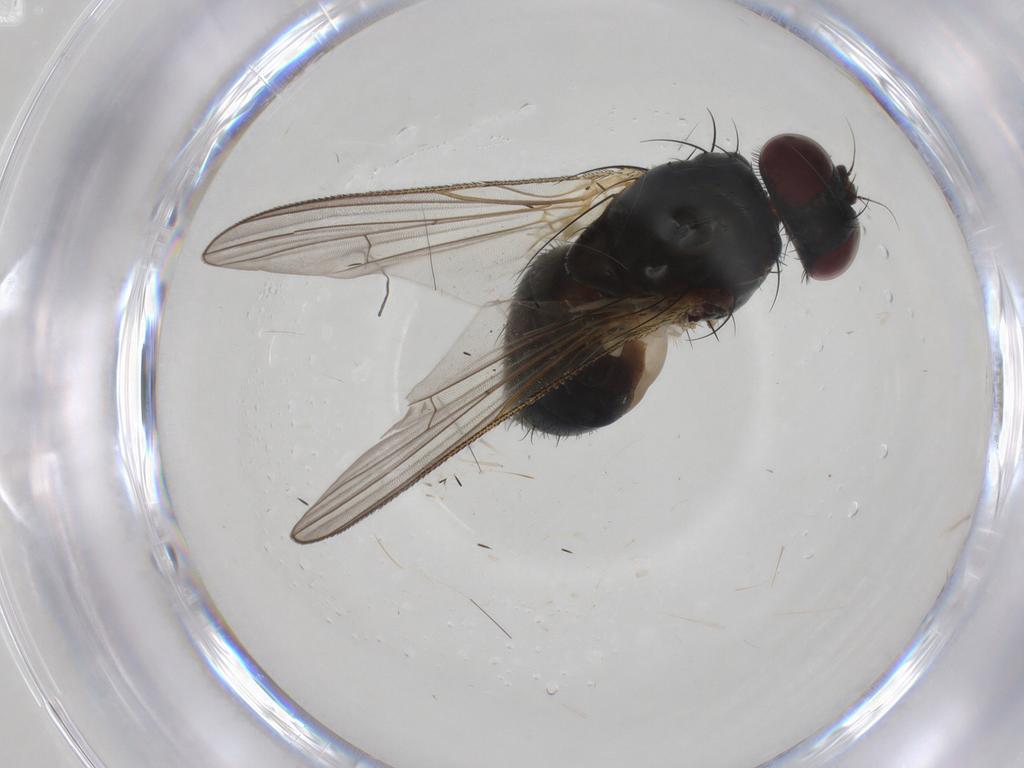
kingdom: Animalia
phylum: Arthropoda
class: Insecta
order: Diptera
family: Fannia
